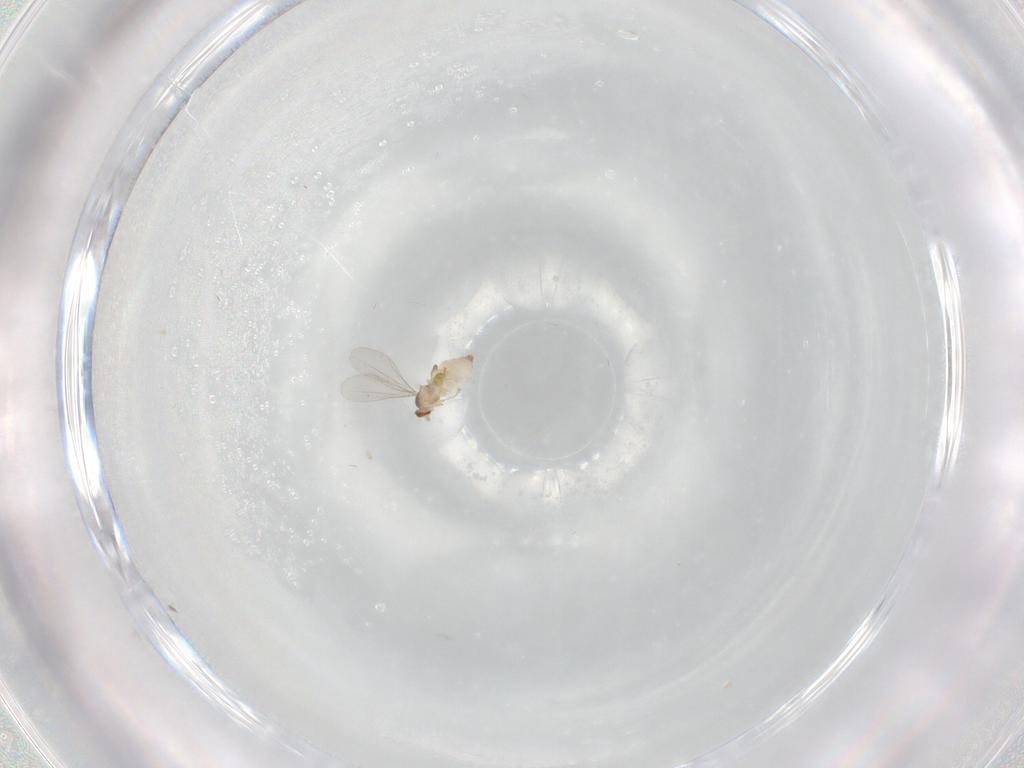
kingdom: Animalia
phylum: Arthropoda
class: Insecta
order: Diptera
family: Cecidomyiidae
